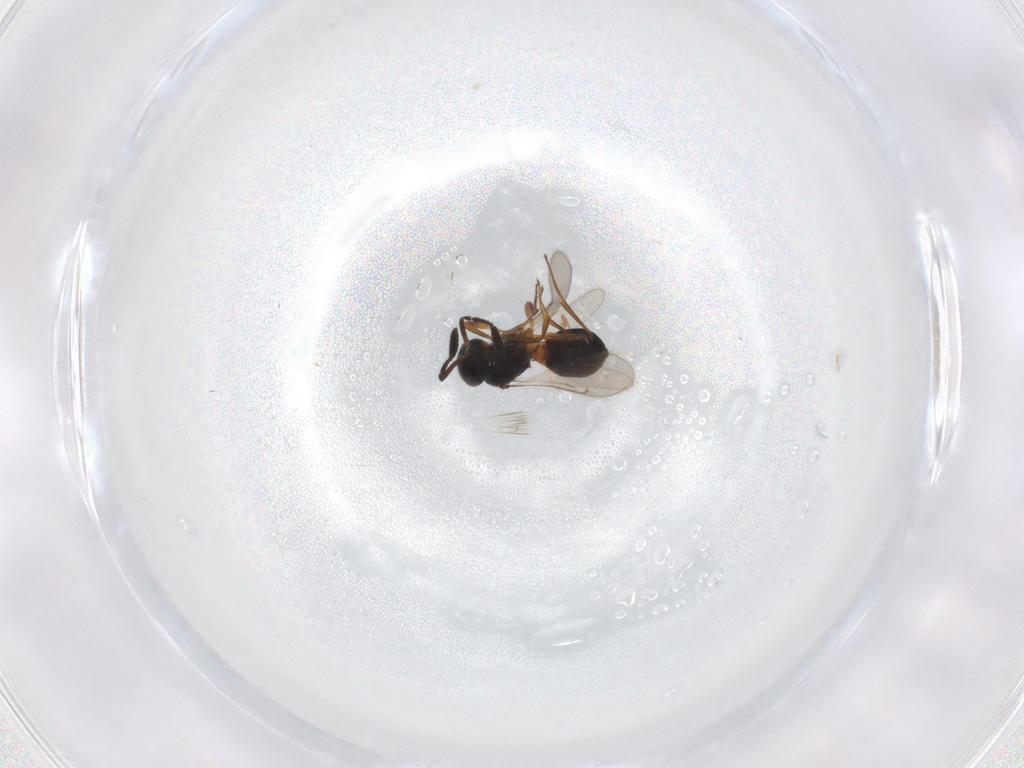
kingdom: Animalia
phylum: Arthropoda
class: Insecta
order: Hymenoptera
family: Scelionidae
